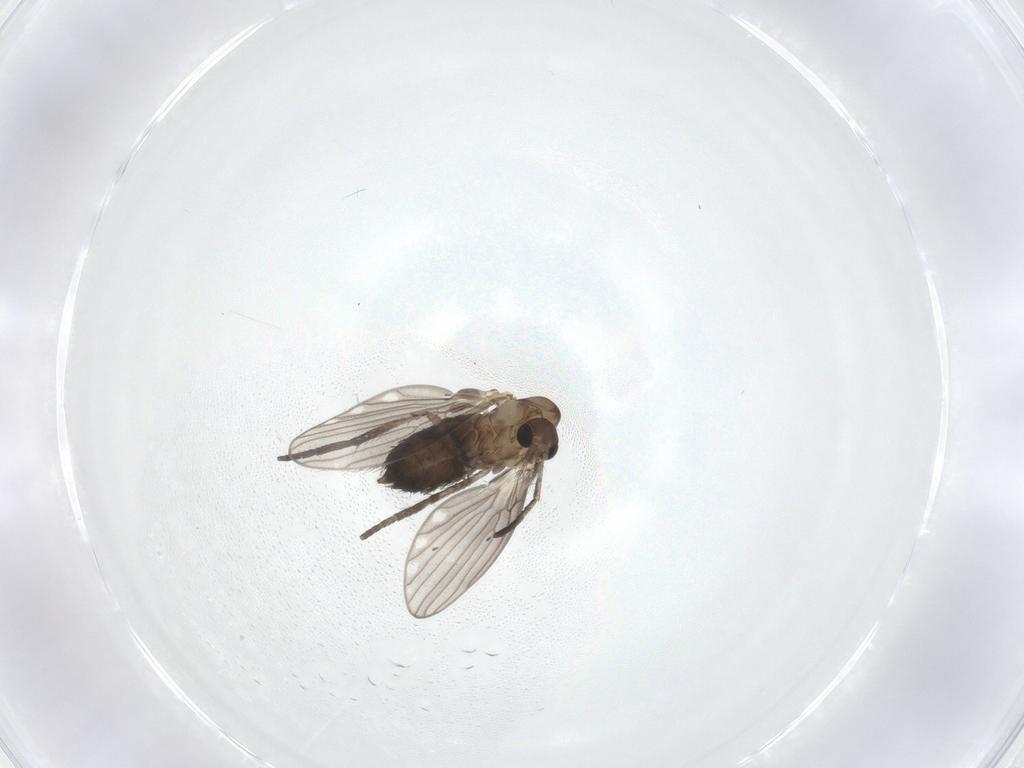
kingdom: Animalia
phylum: Arthropoda
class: Insecta
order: Diptera
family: Psychodidae
